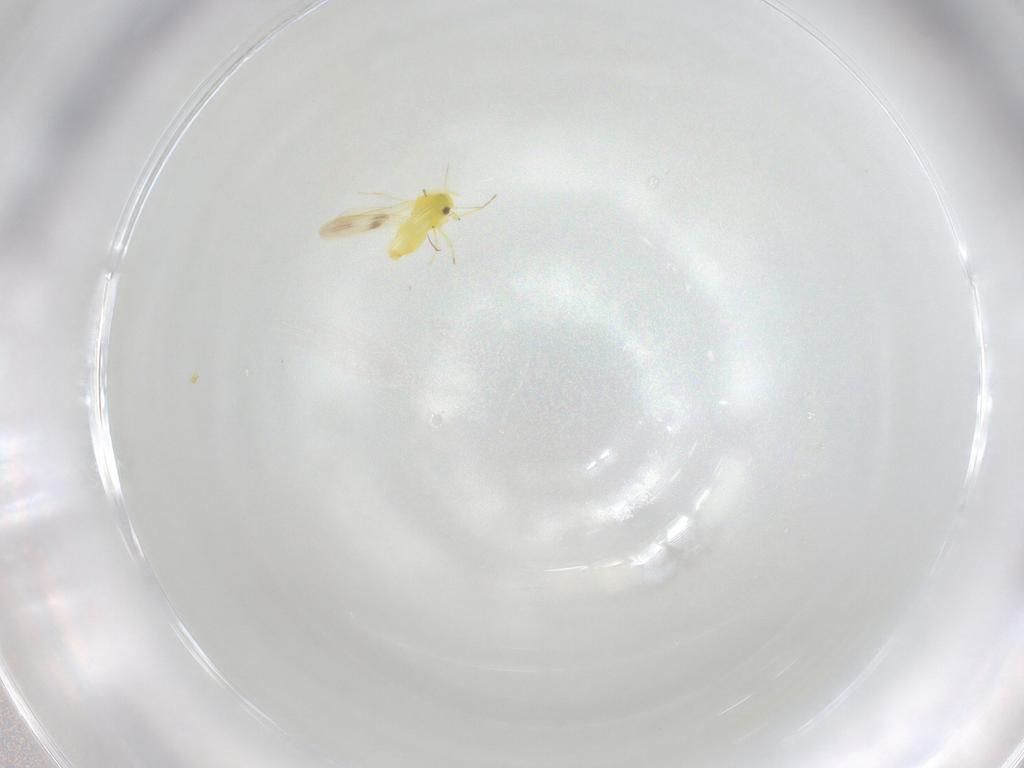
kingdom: Animalia
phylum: Arthropoda
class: Insecta
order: Hemiptera
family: Aleyrodidae
